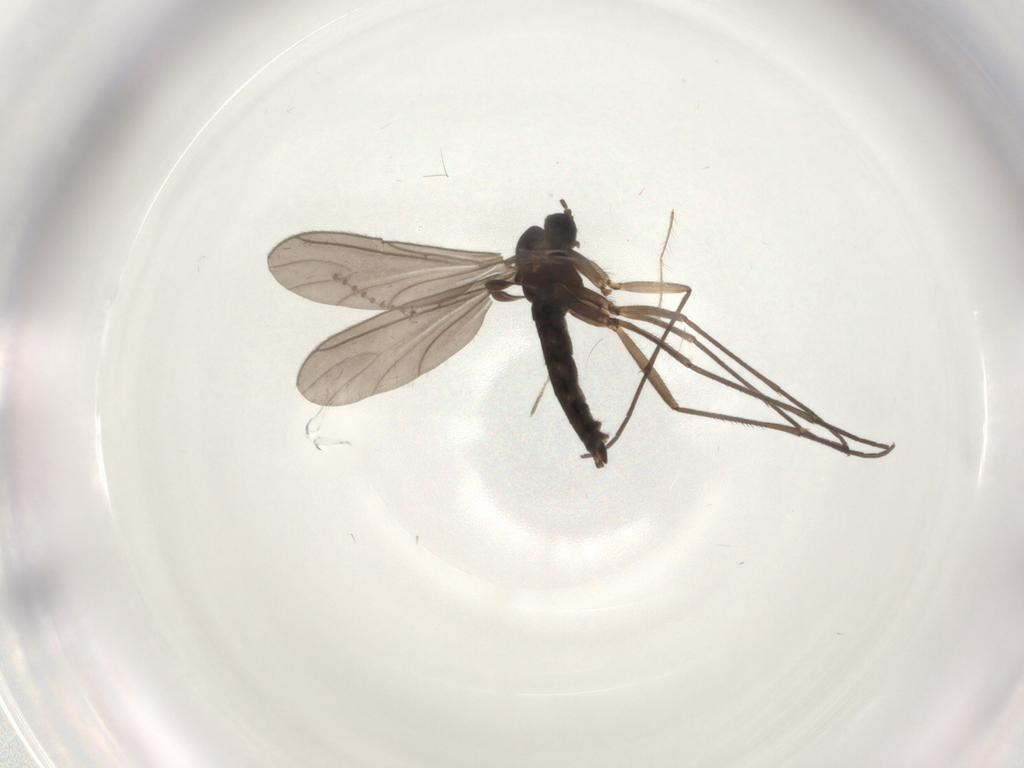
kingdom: Animalia
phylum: Arthropoda
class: Insecta
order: Diptera
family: Sciaridae
